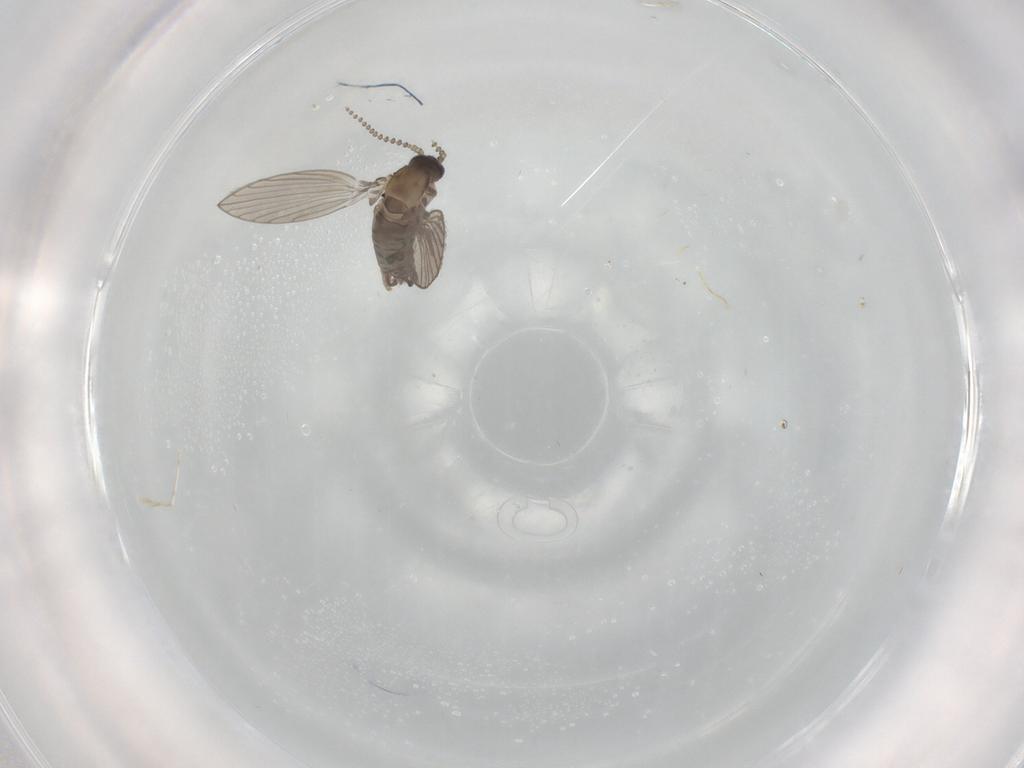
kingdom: Animalia
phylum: Arthropoda
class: Insecta
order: Diptera
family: Psychodidae
